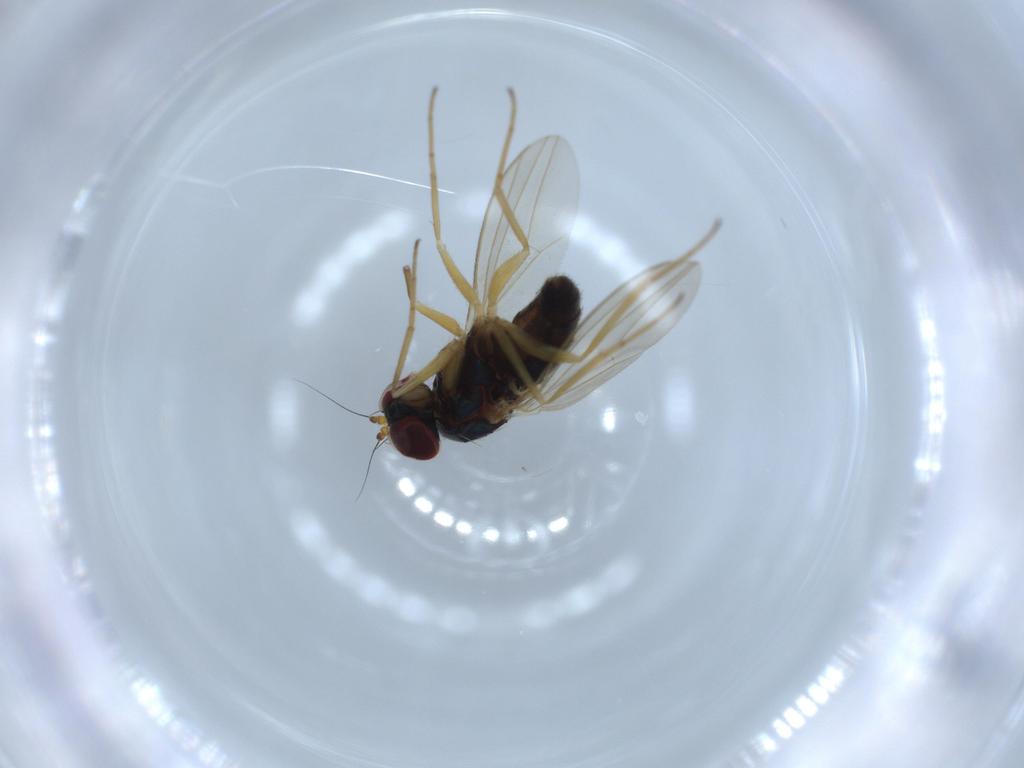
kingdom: Animalia
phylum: Arthropoda
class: Insecta
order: Diptera
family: Dolichopodidae
